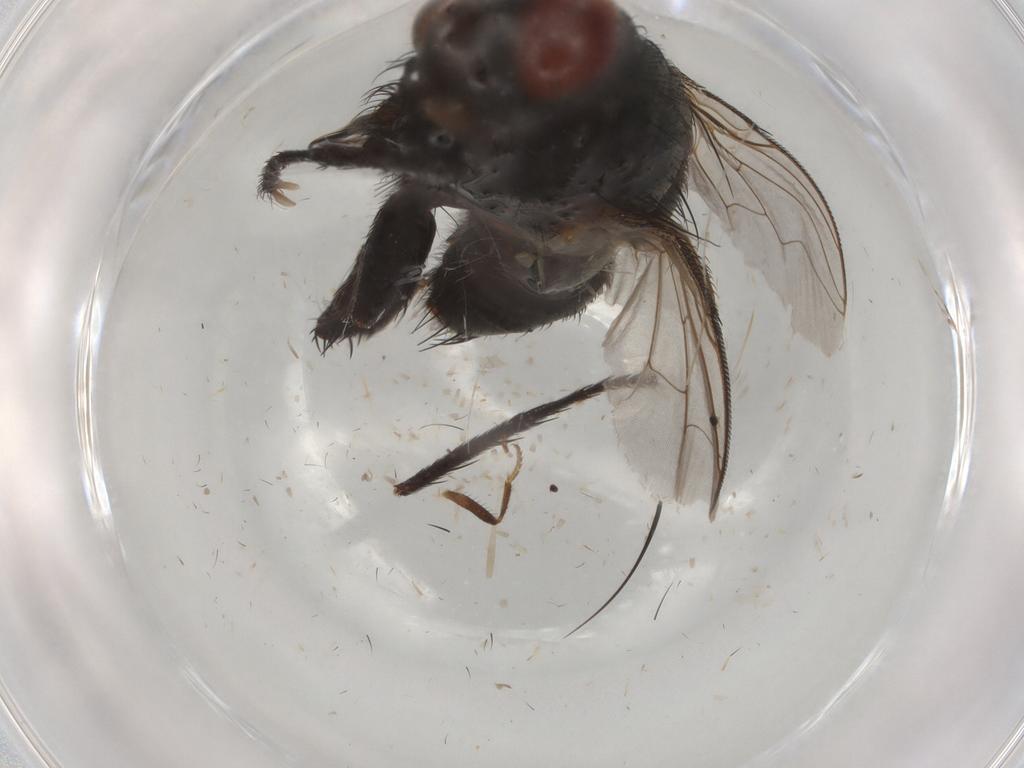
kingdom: Animalia
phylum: Arthropoda
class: Insecta
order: Diptera
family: Sarcophagidae
